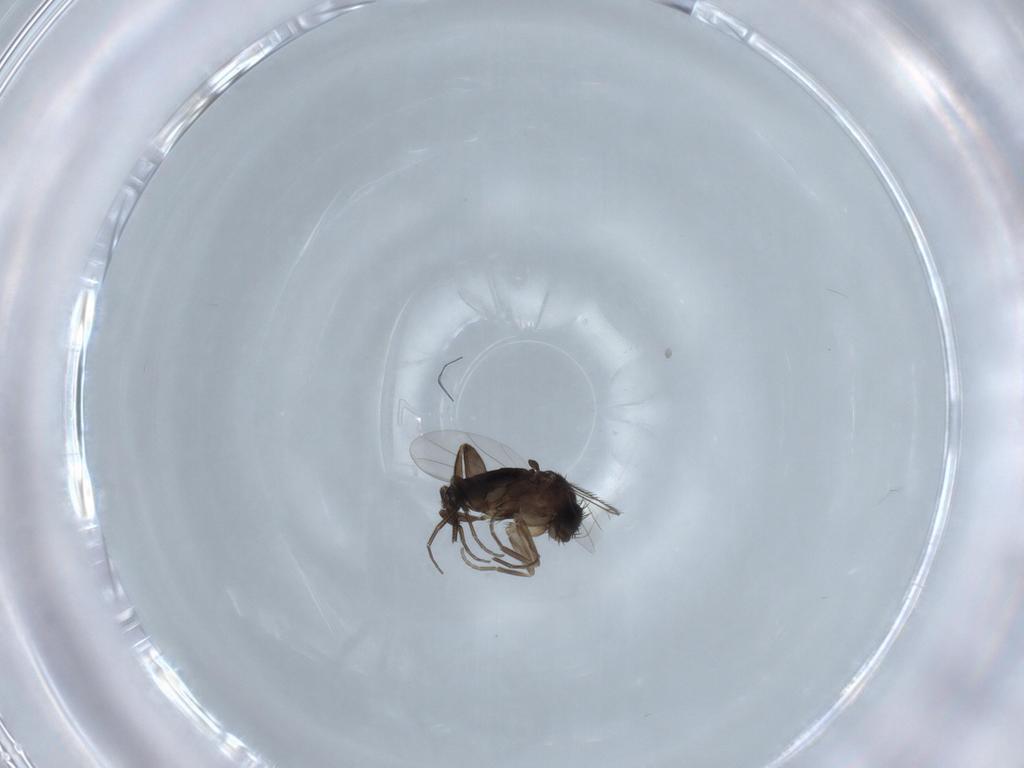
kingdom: Animalia
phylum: Arthropoda
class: Insecta
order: Diptera
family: Phoridae
